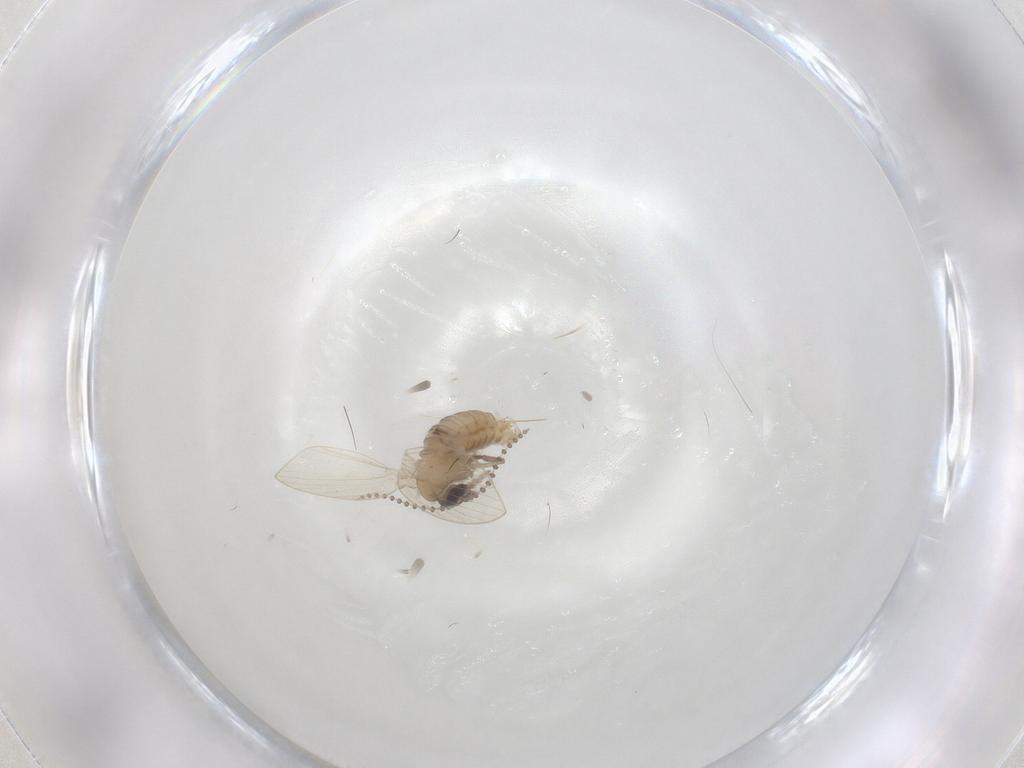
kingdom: Animalia
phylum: Arthropoda
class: Insecta
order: Diptera
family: Psychodidae
